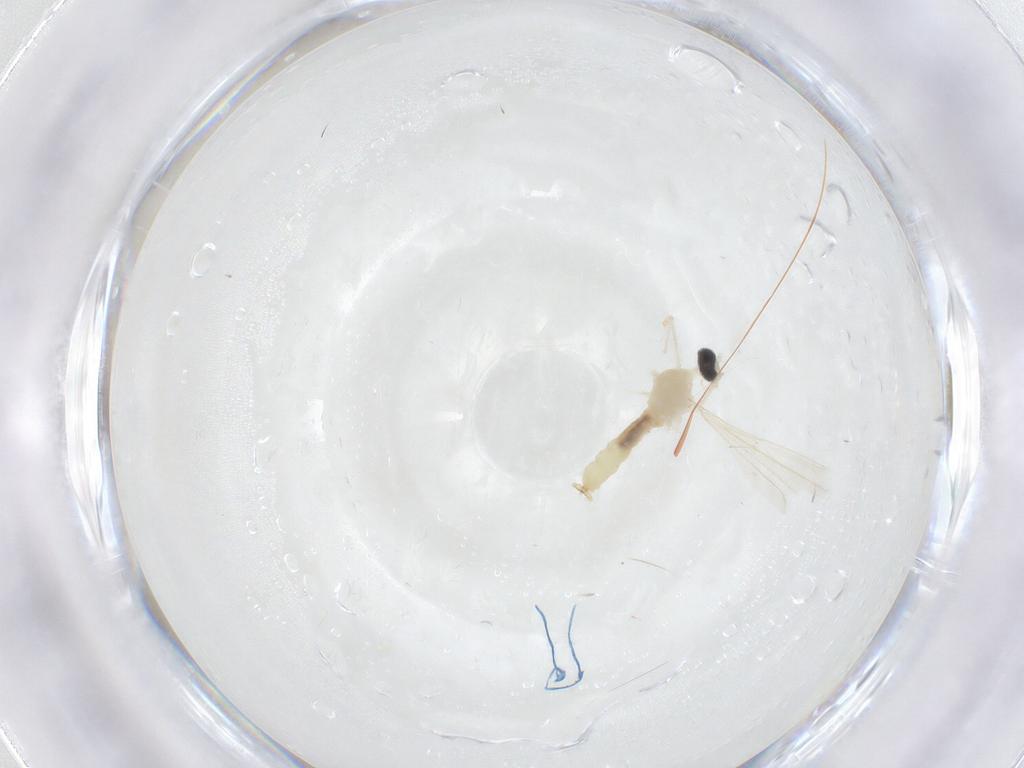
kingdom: Animalia
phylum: Arthropoda
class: Insecta
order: Diptera
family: Cecidomyiidae
